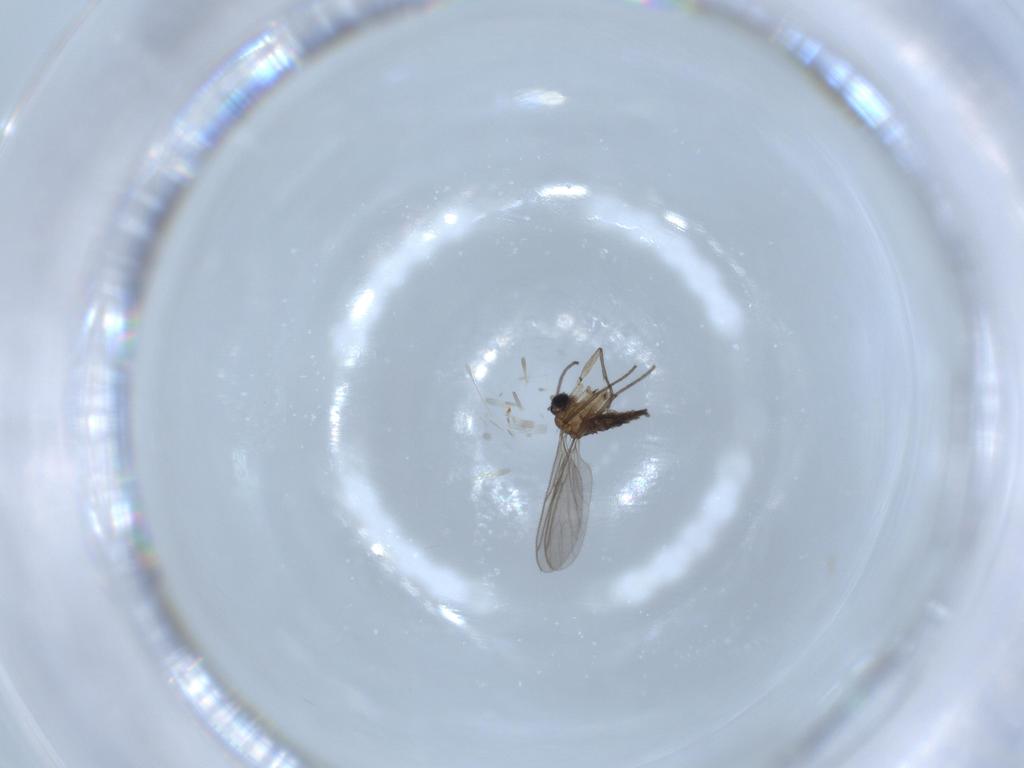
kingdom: Animalia
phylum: Arthropoda
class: Insecta
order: Diptera
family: Sciaridae
